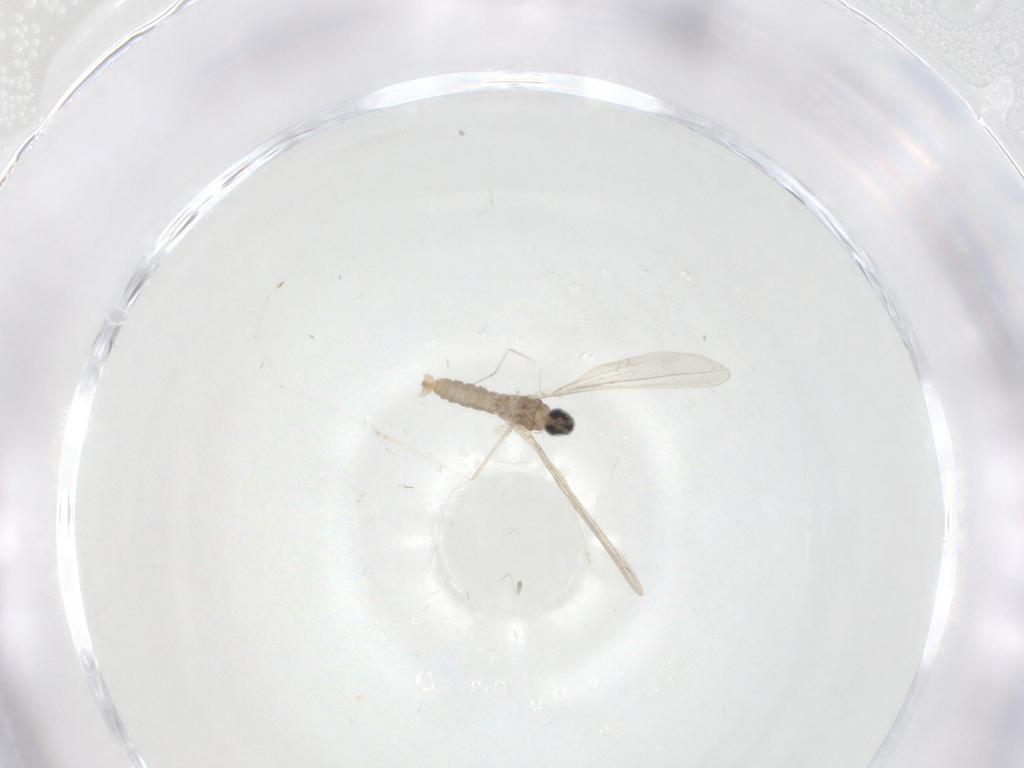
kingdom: Animalia
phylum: Arthropoda
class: Insecta
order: Diptera
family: Cecidomyiidae
